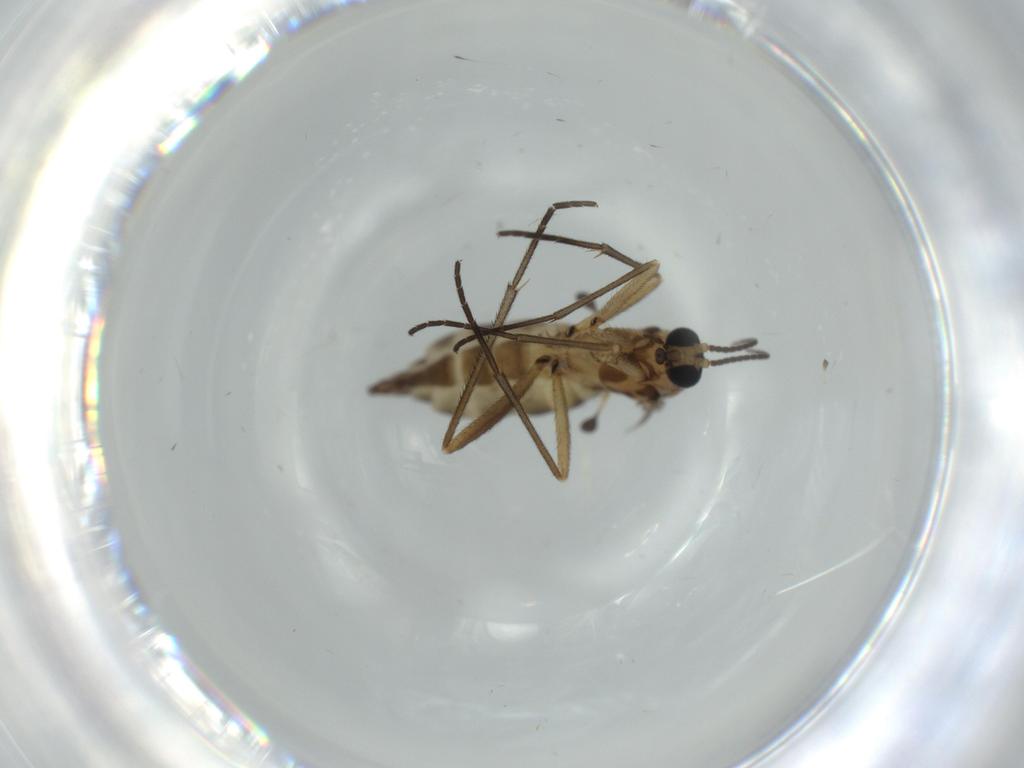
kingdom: Animalia
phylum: Arthropoda
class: Insecta
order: Diptera
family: Sciaridae
